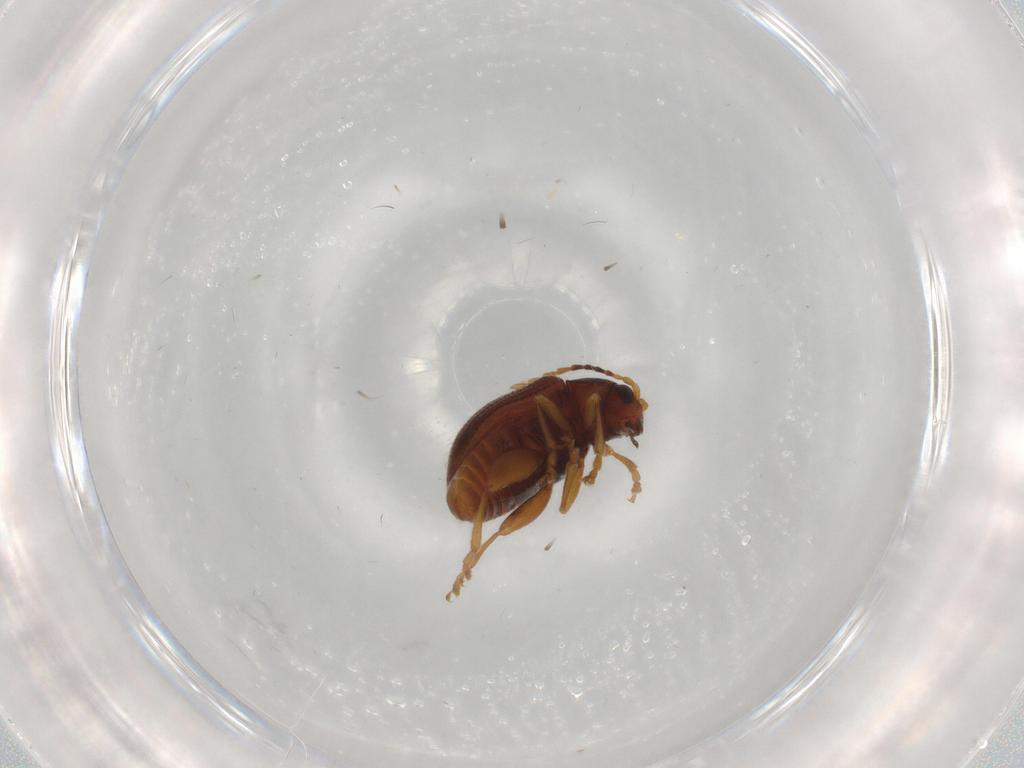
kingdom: Animalia
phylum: Arthropoda
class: Insecta
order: Coleoptera
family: Chrysomelidae
